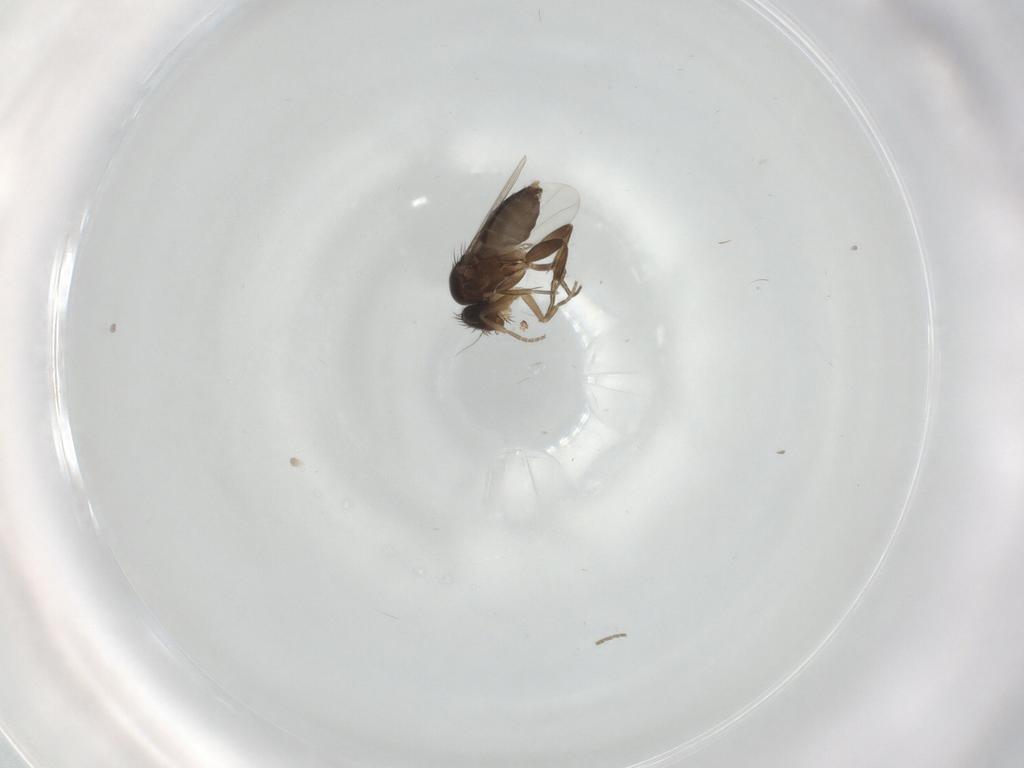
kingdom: Animalia
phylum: Arthropoda
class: Insecta
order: Diptera
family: Phoridae
